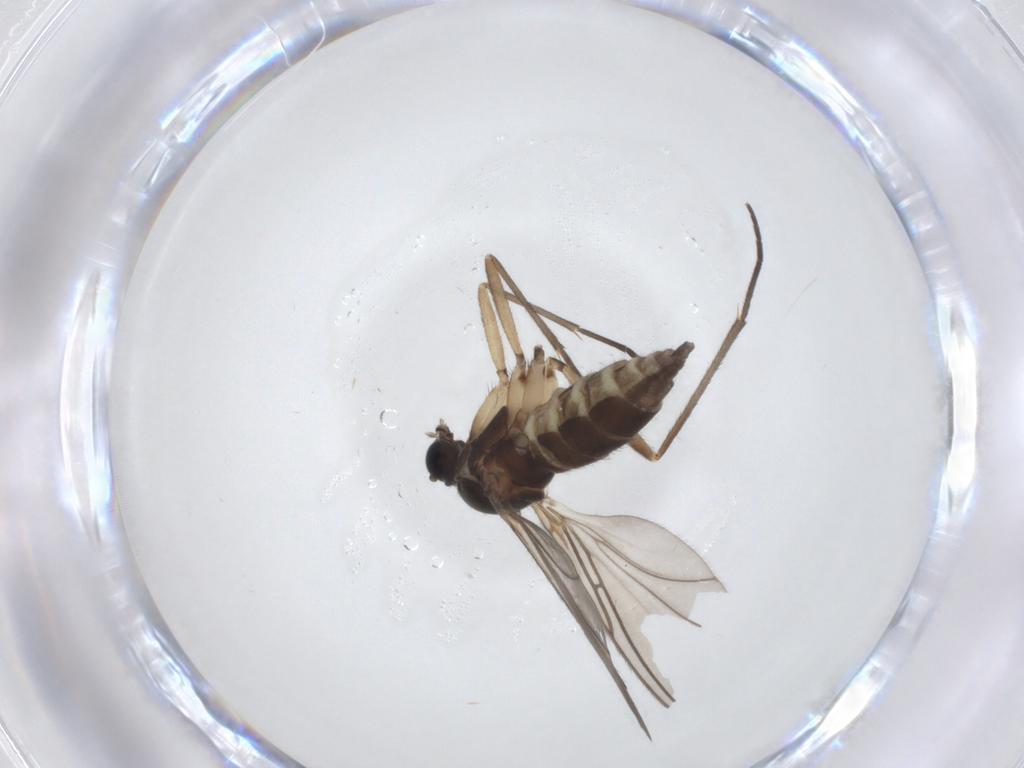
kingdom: Animalia
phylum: Arthropoda
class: Insecta
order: Diptera
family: Sciaridae
